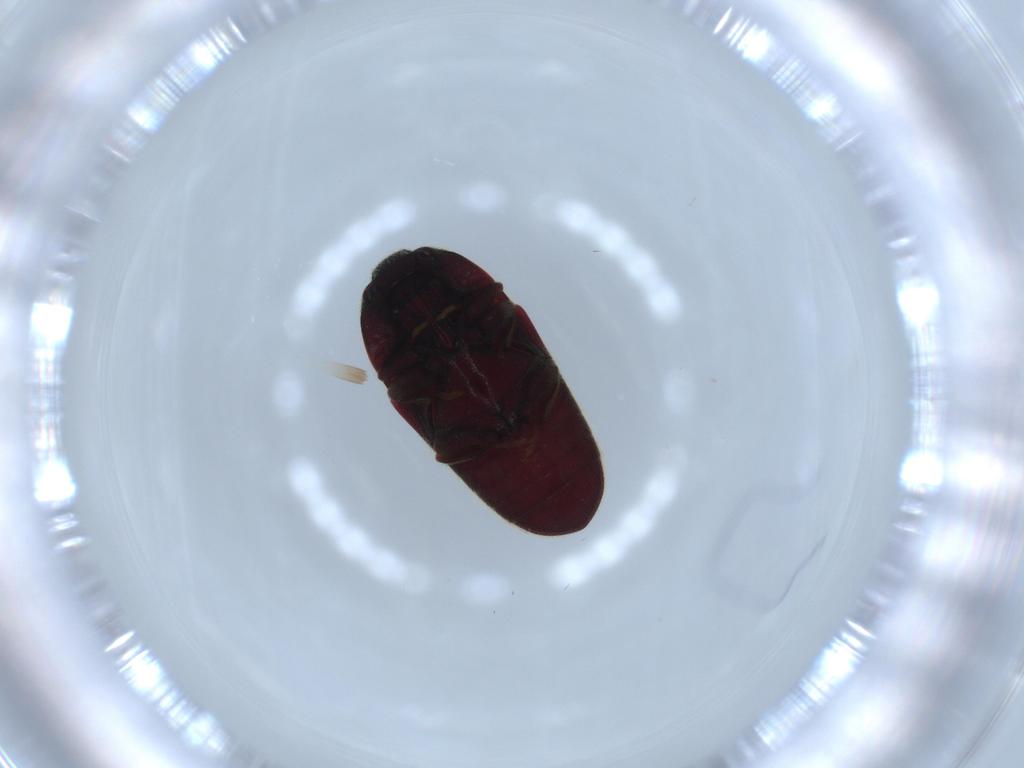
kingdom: Animalia
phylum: Arthropoda
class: Insecta
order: Coleoptera
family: Throscidae
